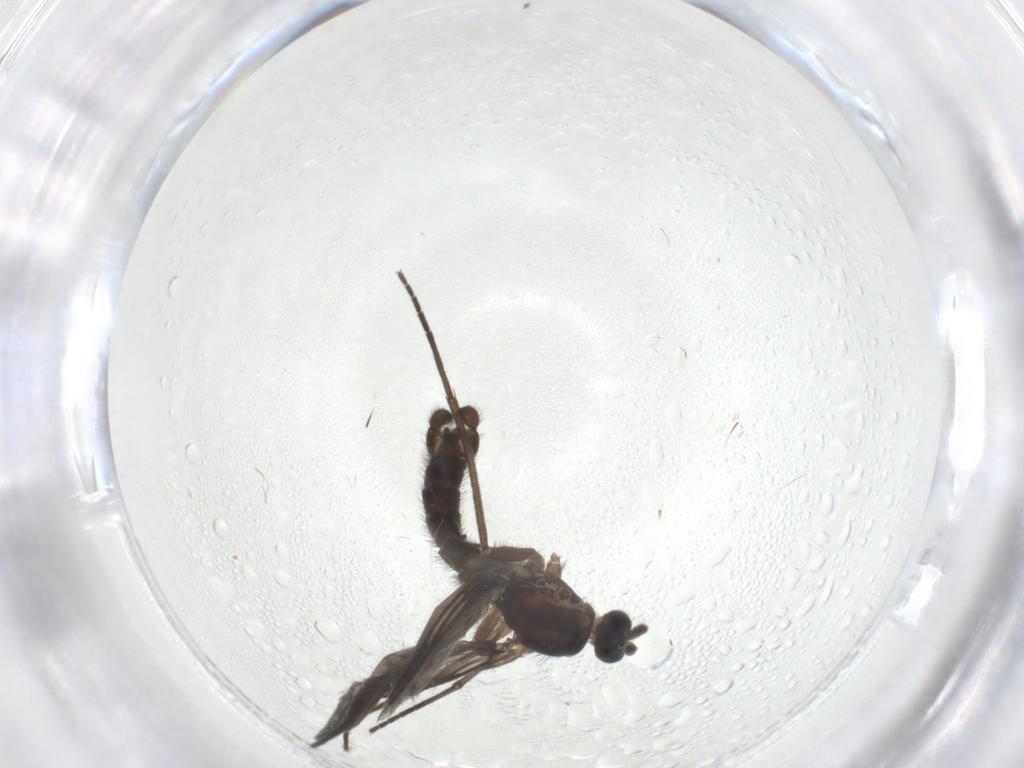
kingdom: Animalia
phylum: Arthropoda
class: Insecta
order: Diptera
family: Sciaridae
